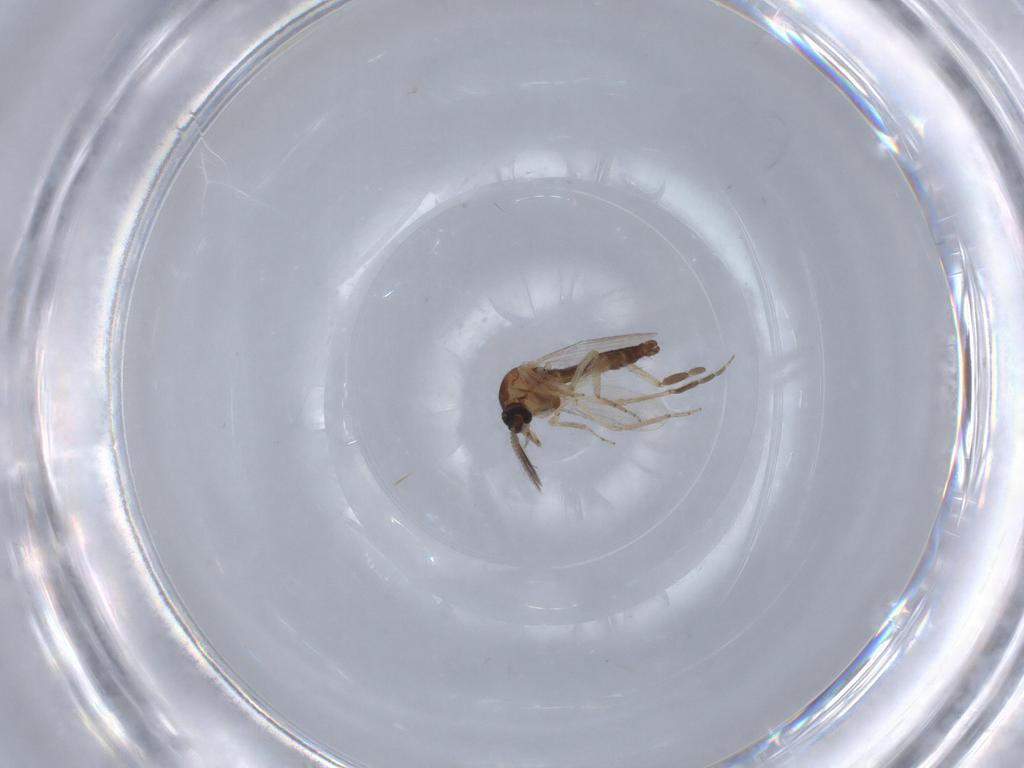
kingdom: Animalia
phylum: Arthropoda
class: Insecta
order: Diptera
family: Ceratopogonidae
